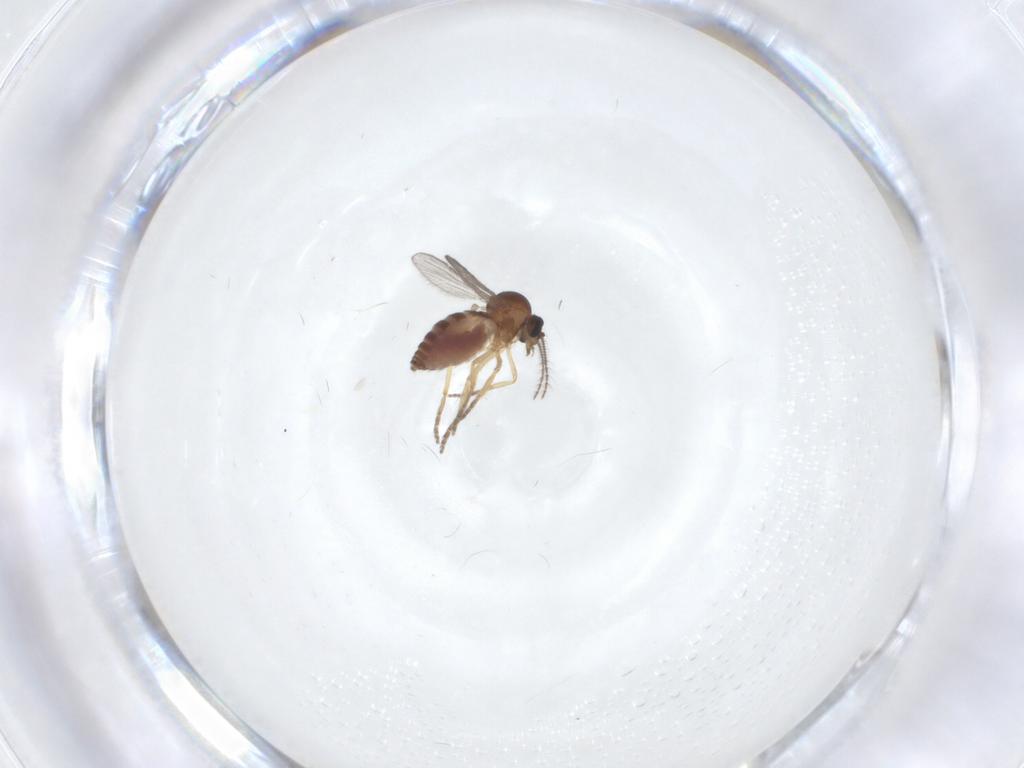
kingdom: Animalia
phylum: Arthropoda
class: Insecta
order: Diptera
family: Ceratopogonidae
